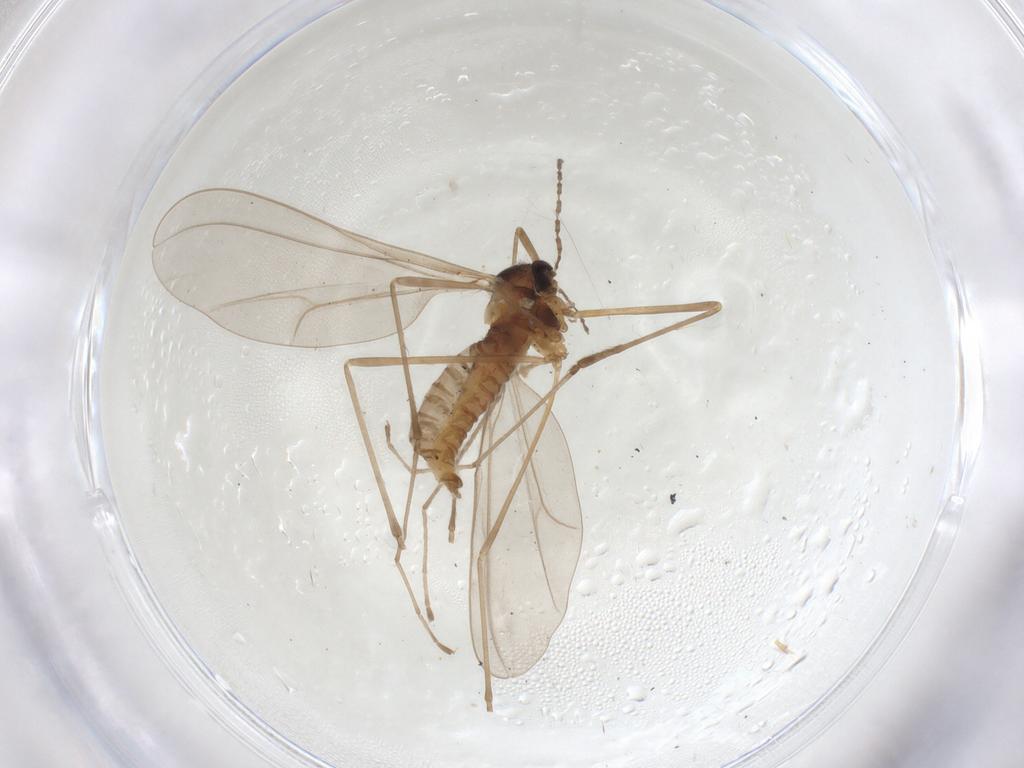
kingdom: Animalia
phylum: Arthropoda
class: Insecta
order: Diptera
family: Cecidomyiidae
